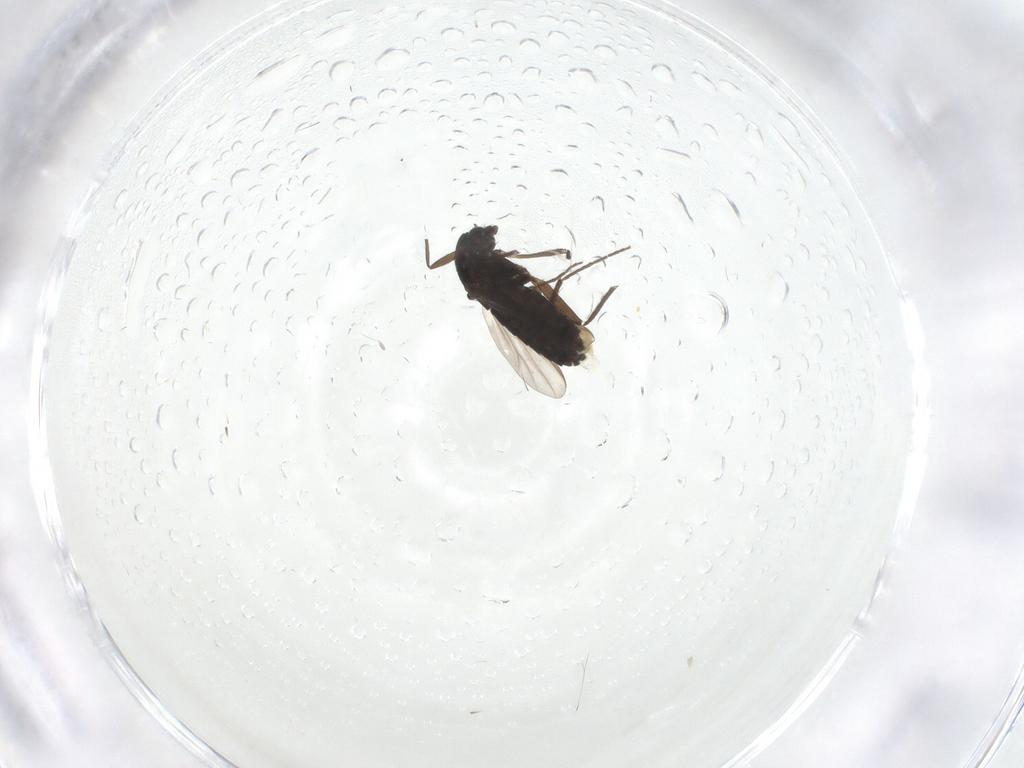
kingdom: Animalia
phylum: Arthropoda
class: Insecta
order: Diptera
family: Chironomidae
